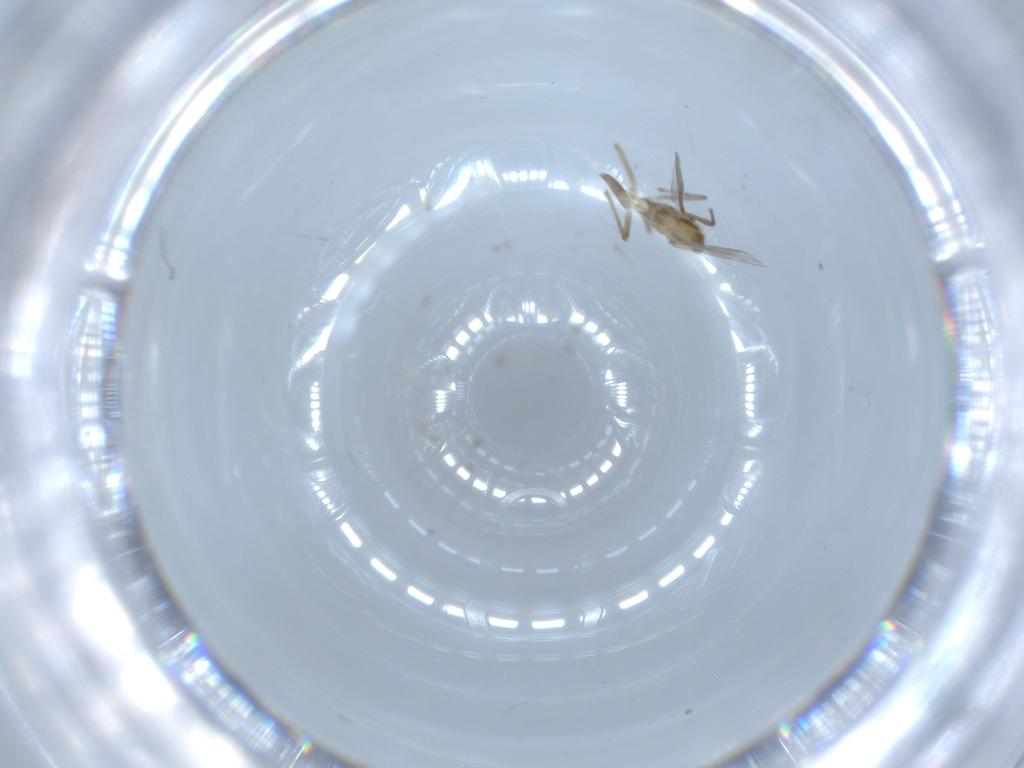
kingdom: Animalia
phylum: Arthropoda
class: Insecta
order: Diptera
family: Chironomidae
